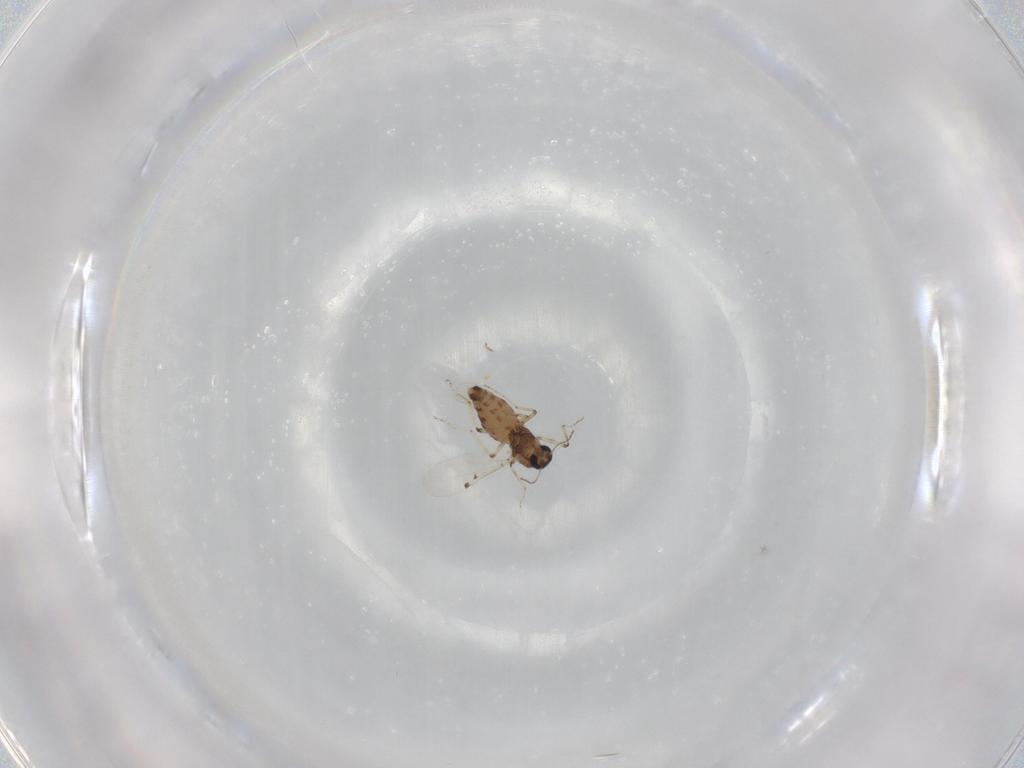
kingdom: Animalia
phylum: Arthropoda
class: Insecta
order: Diptera
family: Ceratopogonidae
